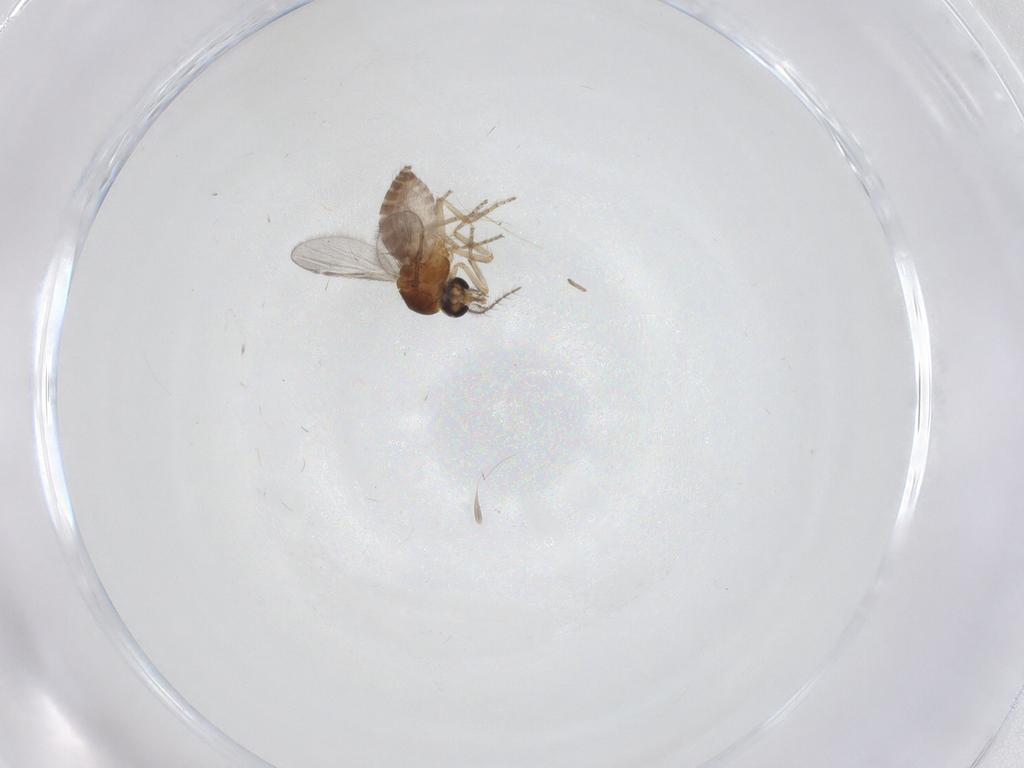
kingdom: Animalia
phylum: Arthropoda
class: Insecta
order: Diptera
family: Ceratopogonidae
